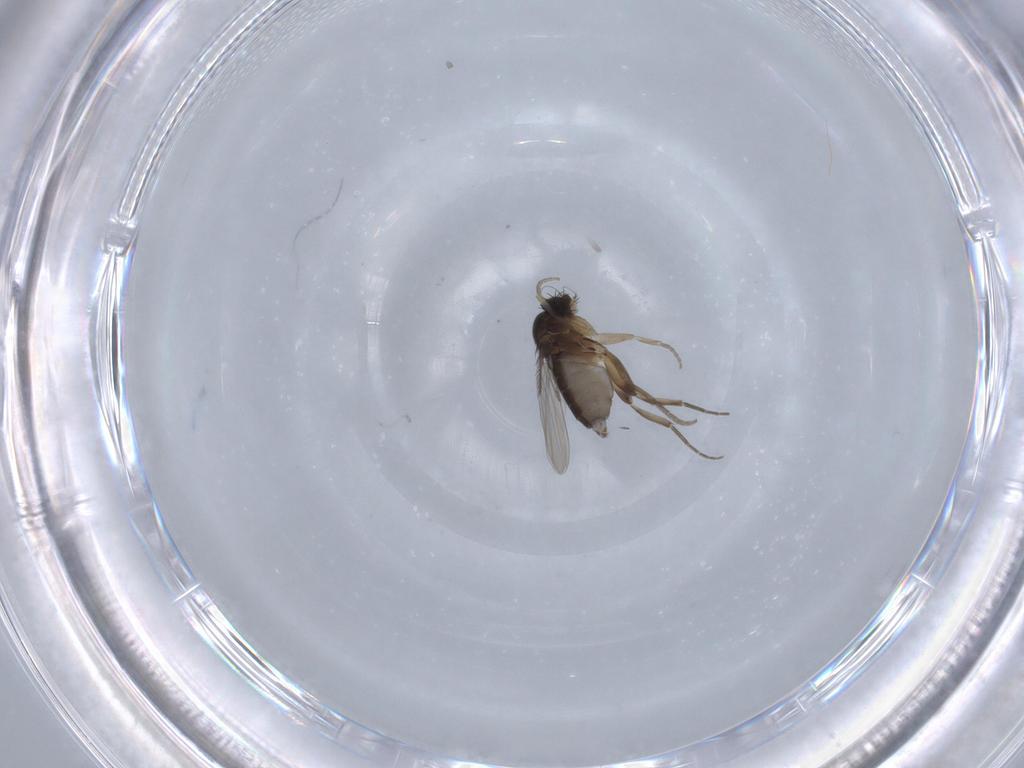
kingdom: Animalia
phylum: Arthropoda
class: Insecta
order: Diptera
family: Phoridae
